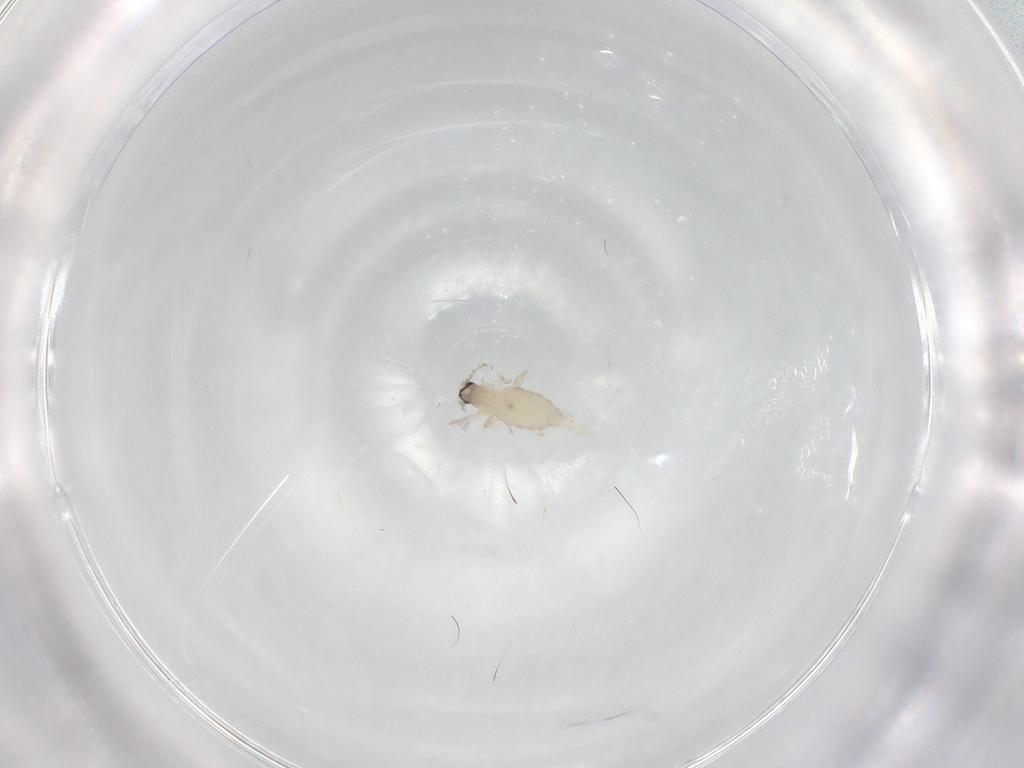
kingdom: Animalia
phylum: Arthropoda
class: Insecta
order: Diptera
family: Cecidomyiidae
